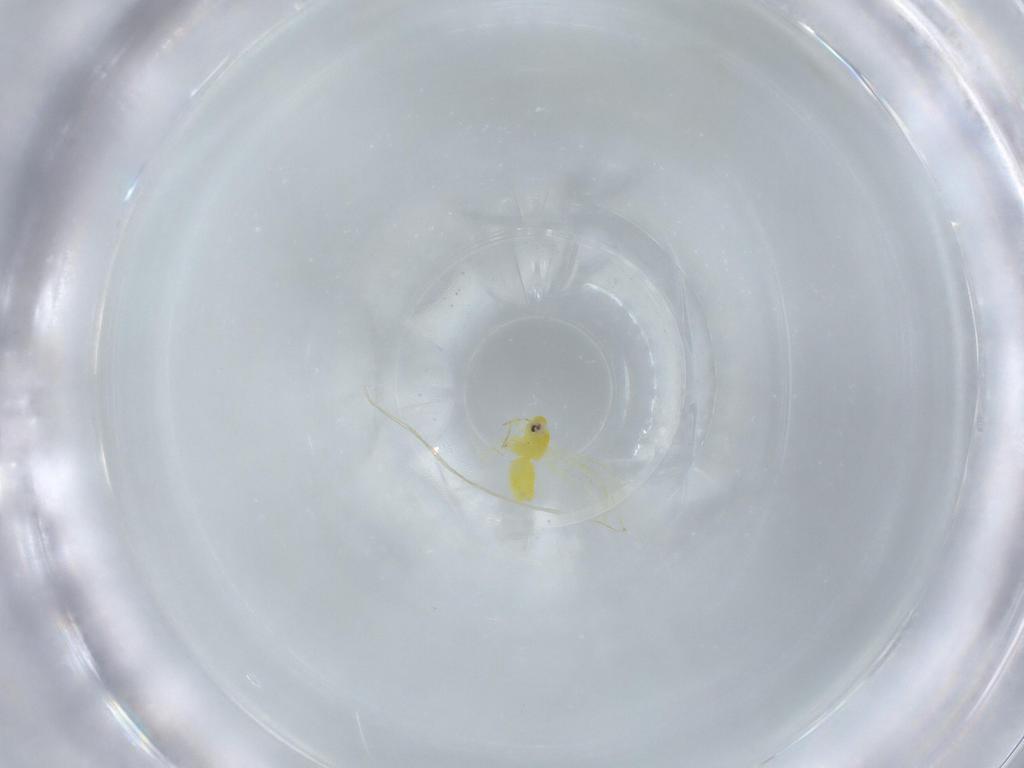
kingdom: Animalia
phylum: Arthropoda
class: Insecta
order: Hemiptera
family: Aleyrodidae
